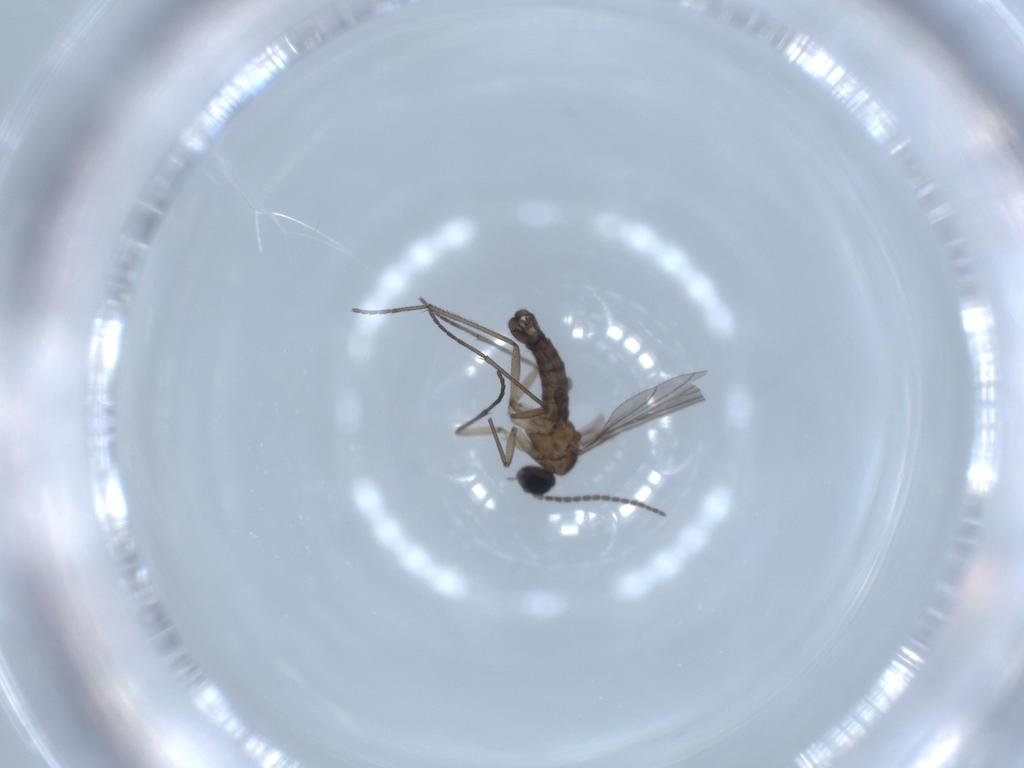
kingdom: Animalia
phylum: Arthropoda
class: Insecta
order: Diptera
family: Sciaridae
